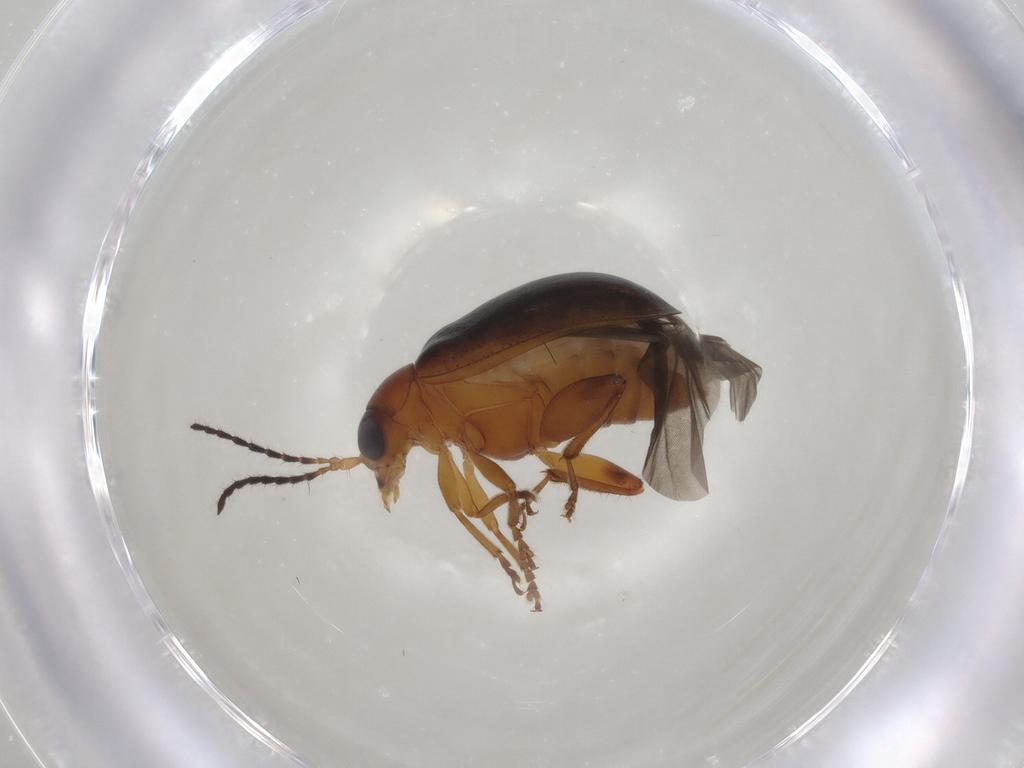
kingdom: Animalia
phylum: Arthropoda
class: Insecta
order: Coleoptera
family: Chrysomelidae
